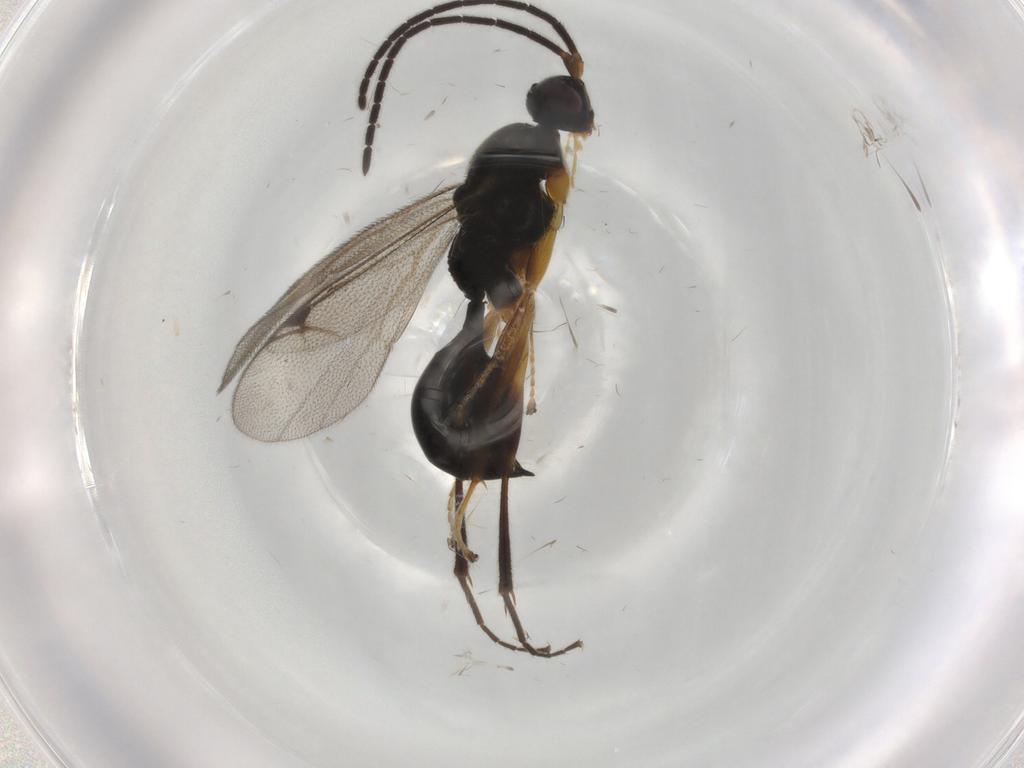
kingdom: Animalia
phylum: Arthropoda
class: Insecta
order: Hymenoptera
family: Scoliidae
